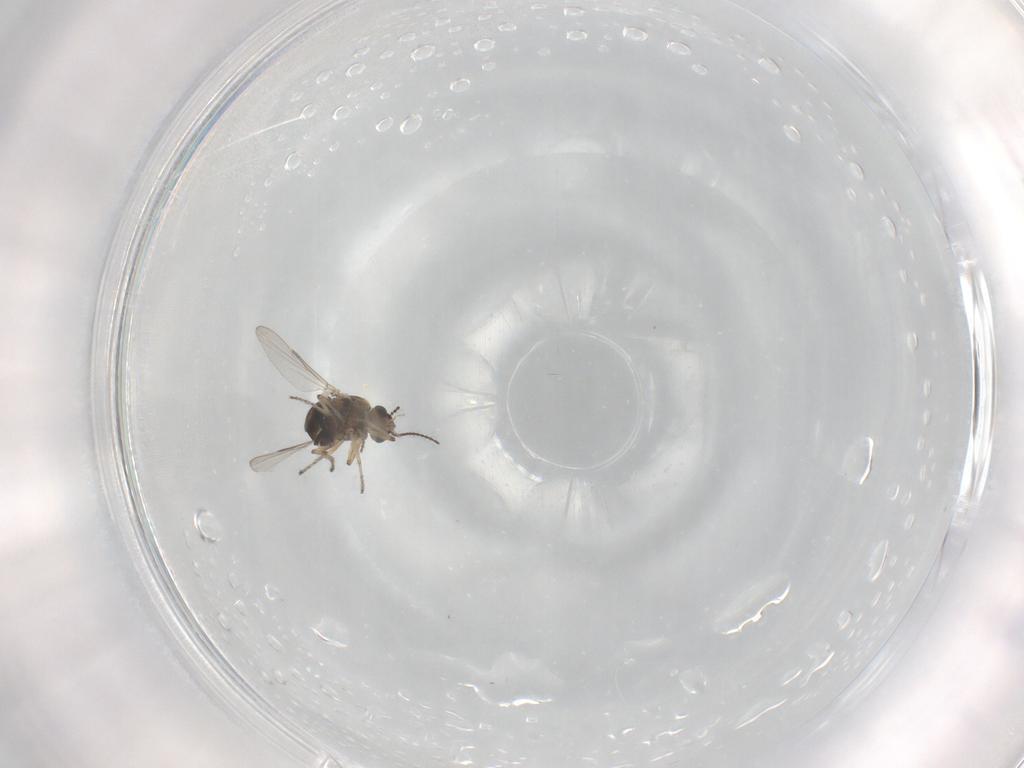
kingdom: Animalia
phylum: Arthropoda
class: Insecta
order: Diptera
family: Ceratopogonidae
